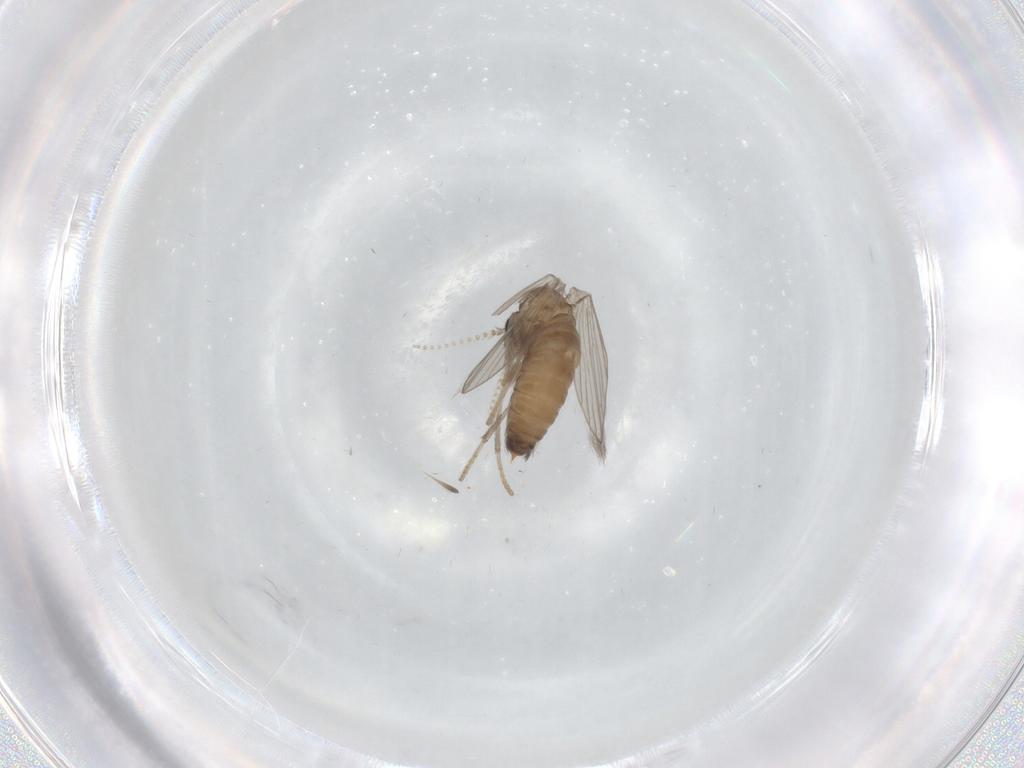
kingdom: Animalia
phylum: Arthropoda
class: Insecta
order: Diptera
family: Psychodidae
